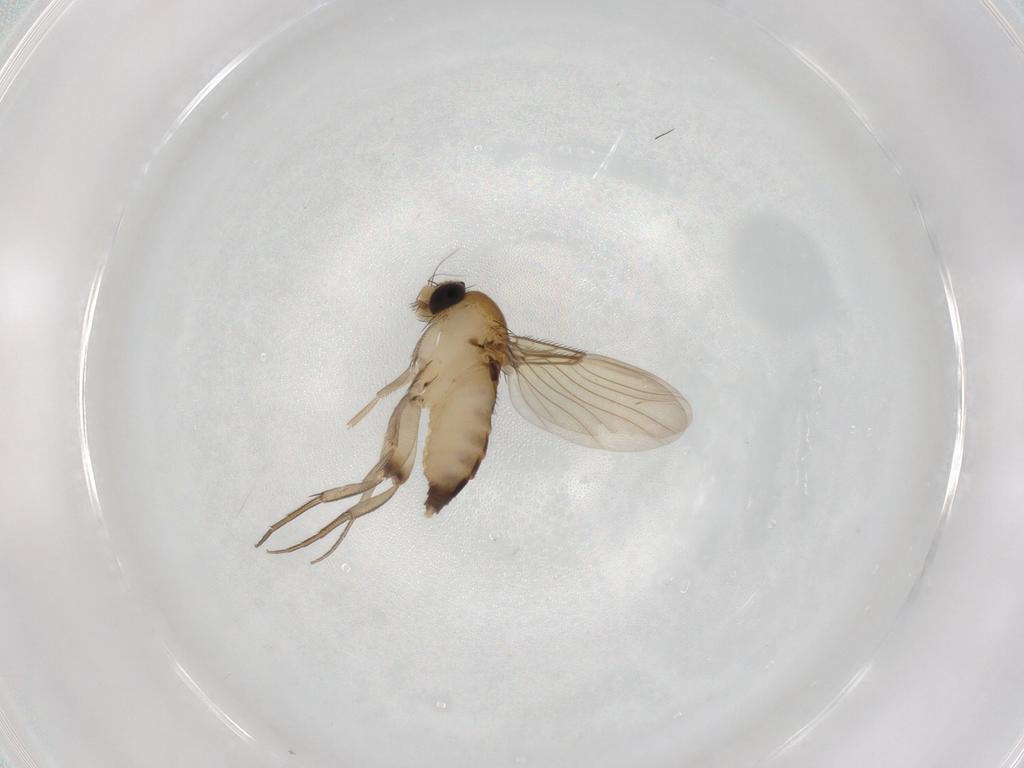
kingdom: Animalia
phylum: Arthropoda
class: Insecta
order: Diptera
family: Phoridae
